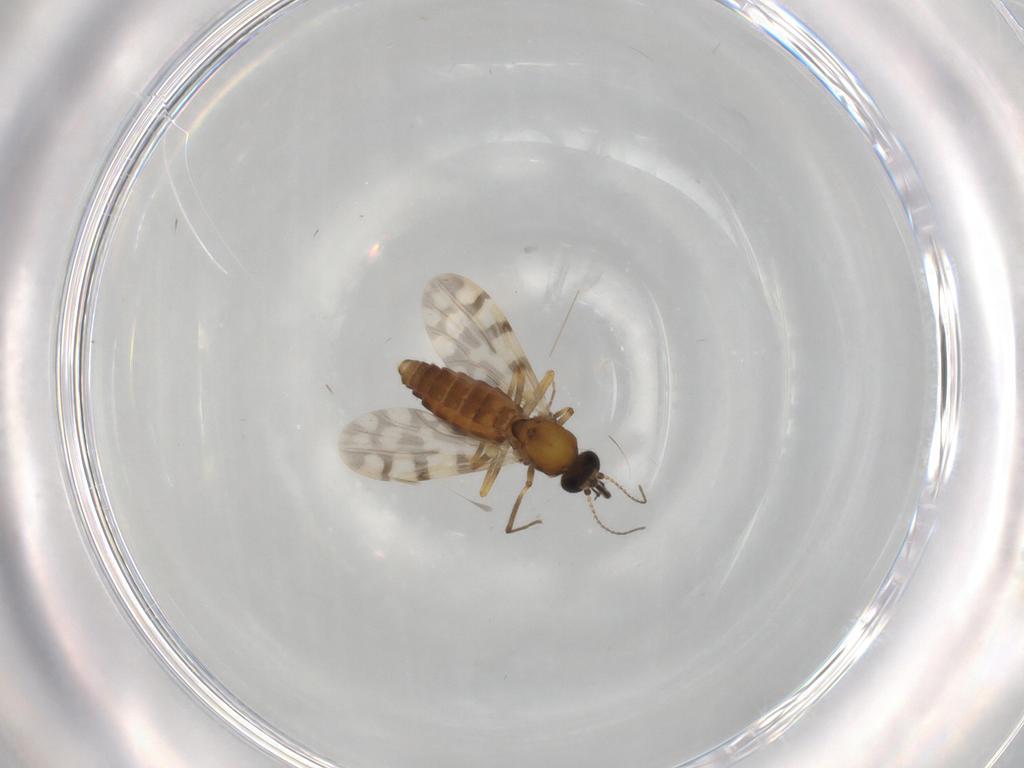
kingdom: Animalia
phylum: Arthropoda
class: Insecta
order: Diptera
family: Ceratopogonidae
